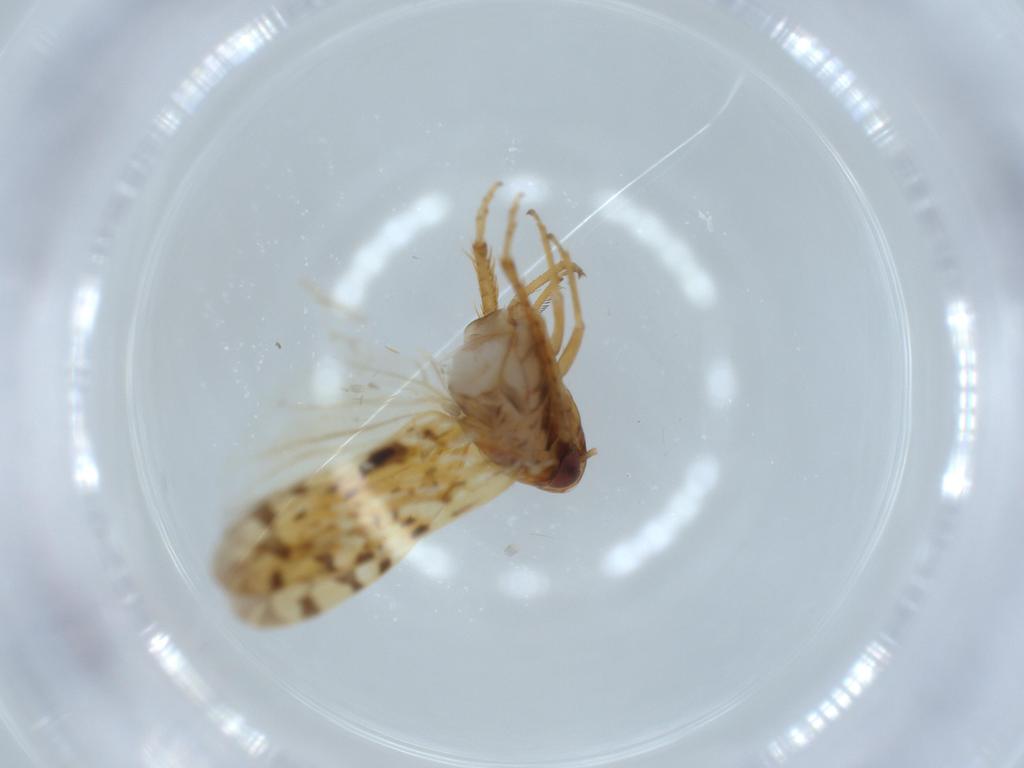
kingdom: Animalia
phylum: Arthropoda
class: Insecta
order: Hemiptera
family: Cicadellidae
